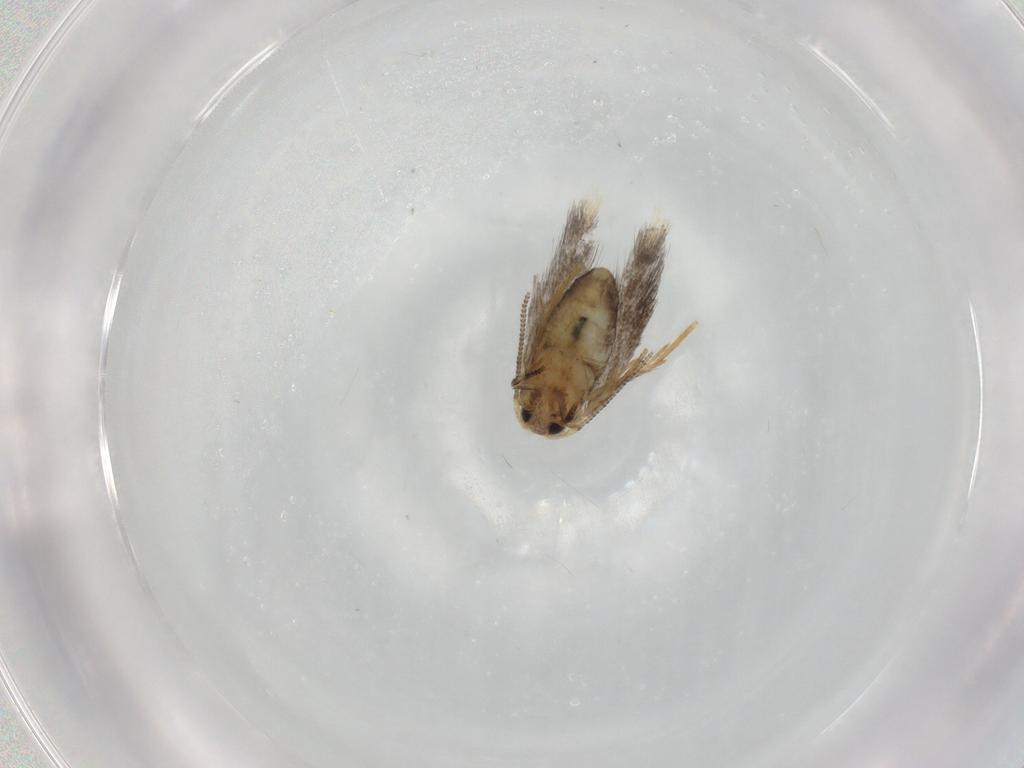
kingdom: Animalia
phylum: Arthropoda
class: Insecta
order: Lepidoptera
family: Nepticulidae
